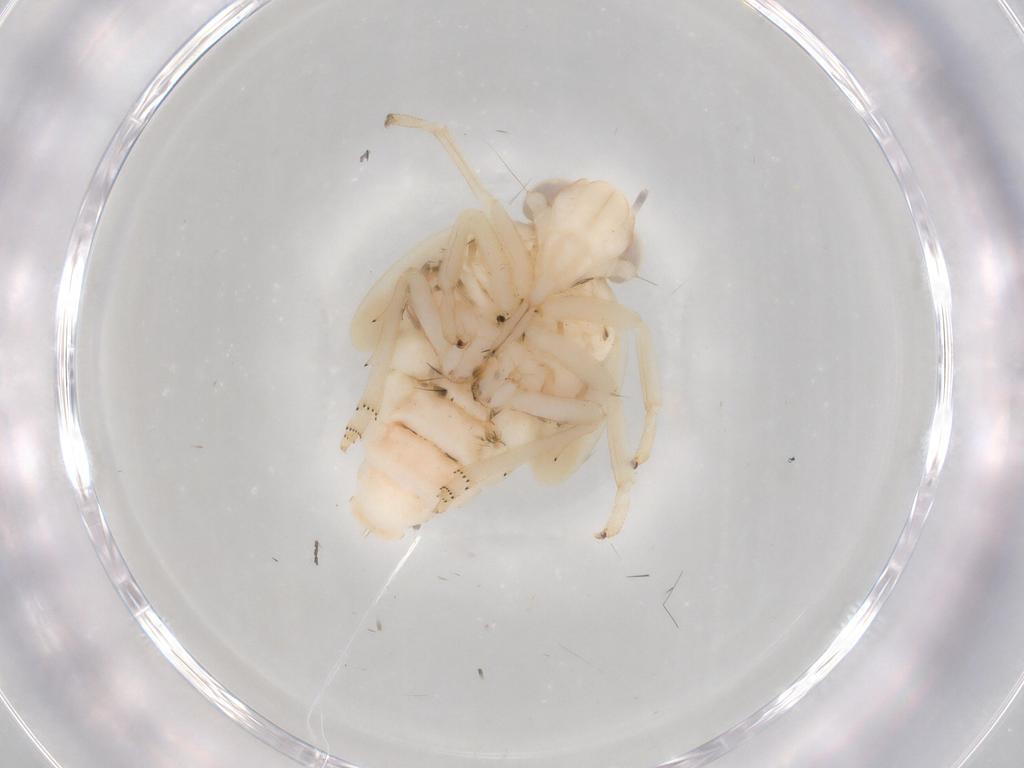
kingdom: Animalia
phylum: Arthropoda
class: Insecta
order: Hemiptera
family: Nogodinidae
